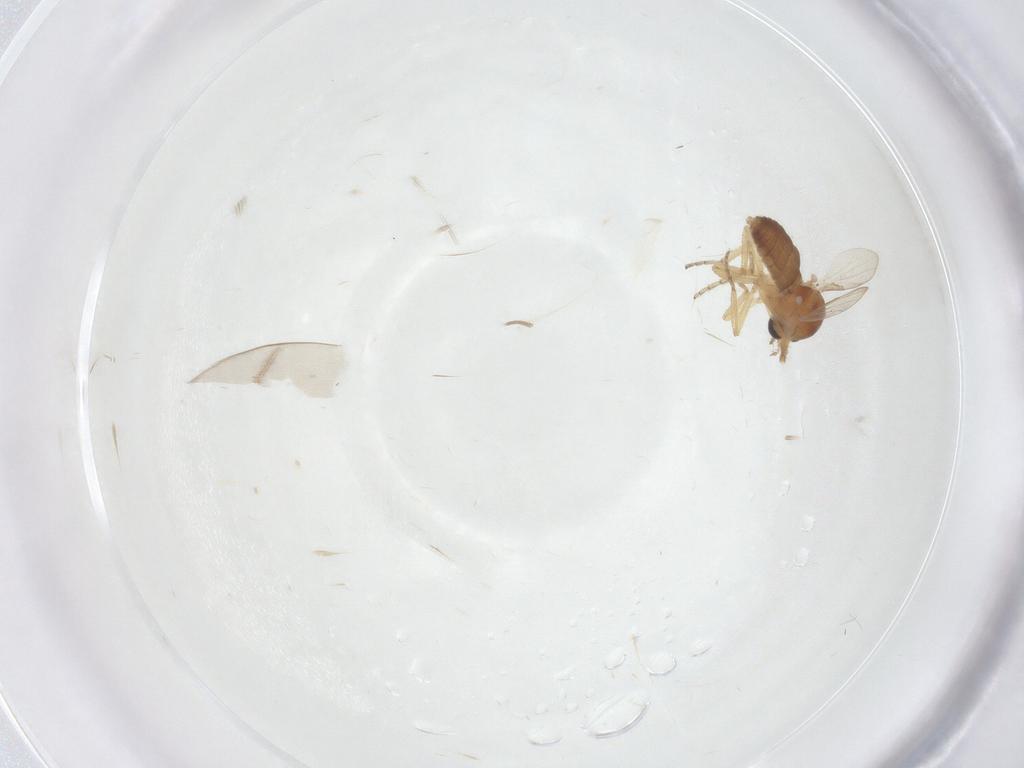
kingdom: Animalia
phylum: Arthropoda
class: Insecta
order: Diptera
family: Ceratopogonidae
